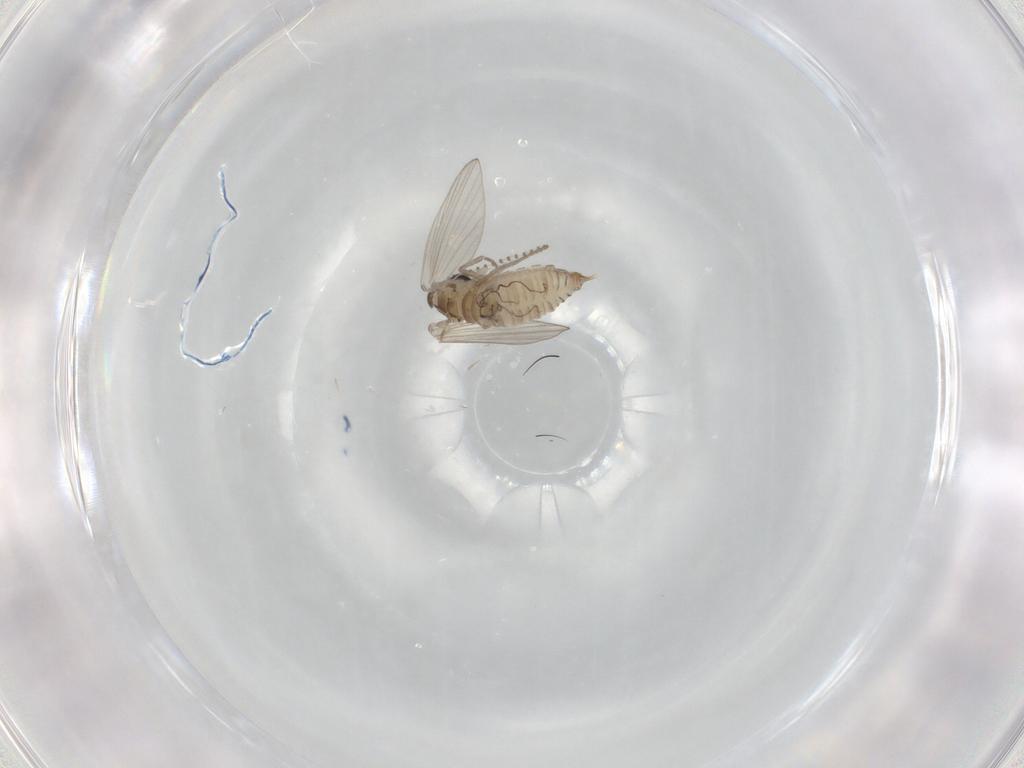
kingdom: Animalia
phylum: Arthropoda
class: Insecta
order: Diptera
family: Psychodidae
